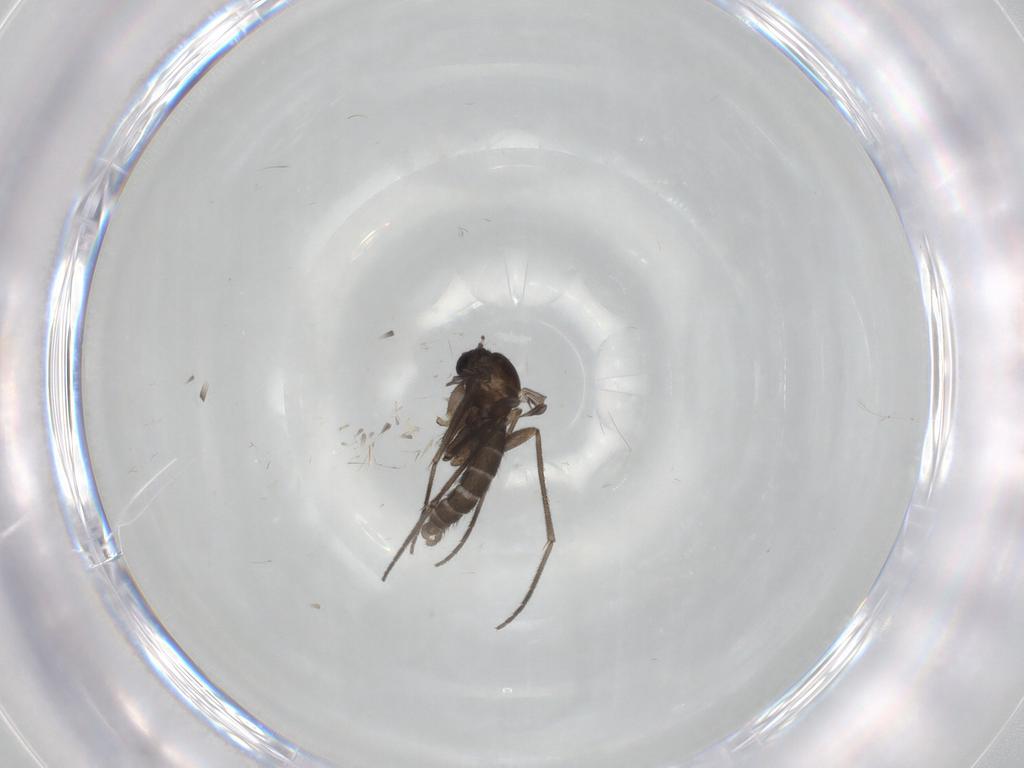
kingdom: Animalia
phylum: Arthropoda
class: Insecta
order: Diptera
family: Sciaridae
